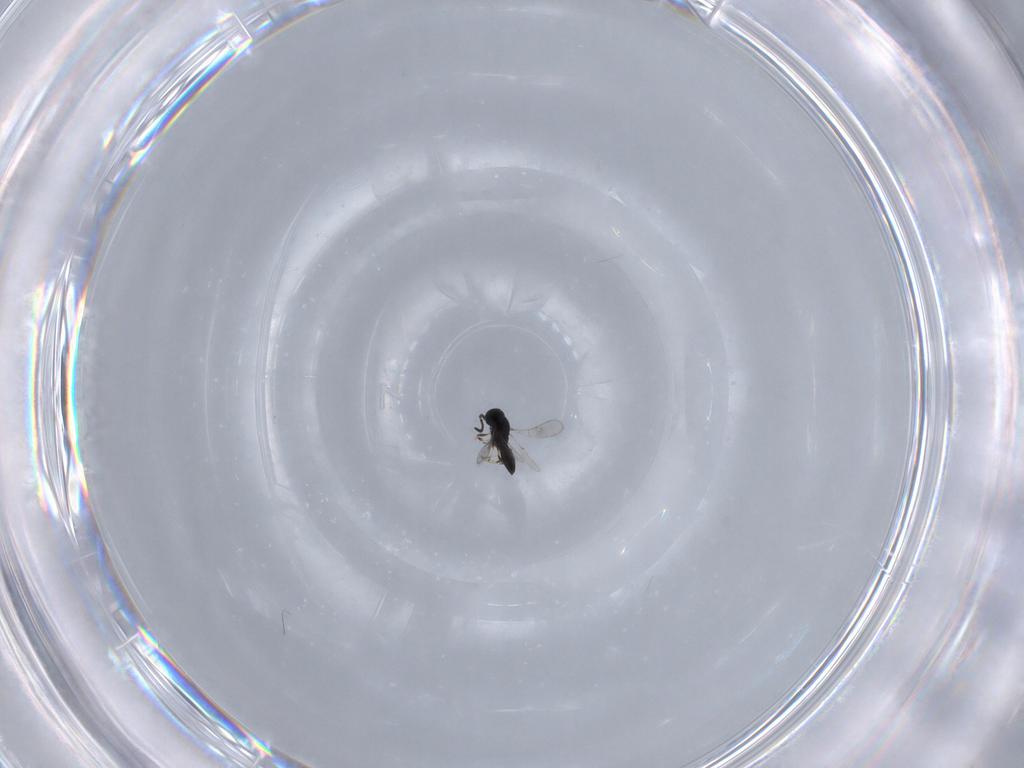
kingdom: Animalia
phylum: Arthropoda
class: Insecta
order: Hymenoptera
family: Scelionidae
